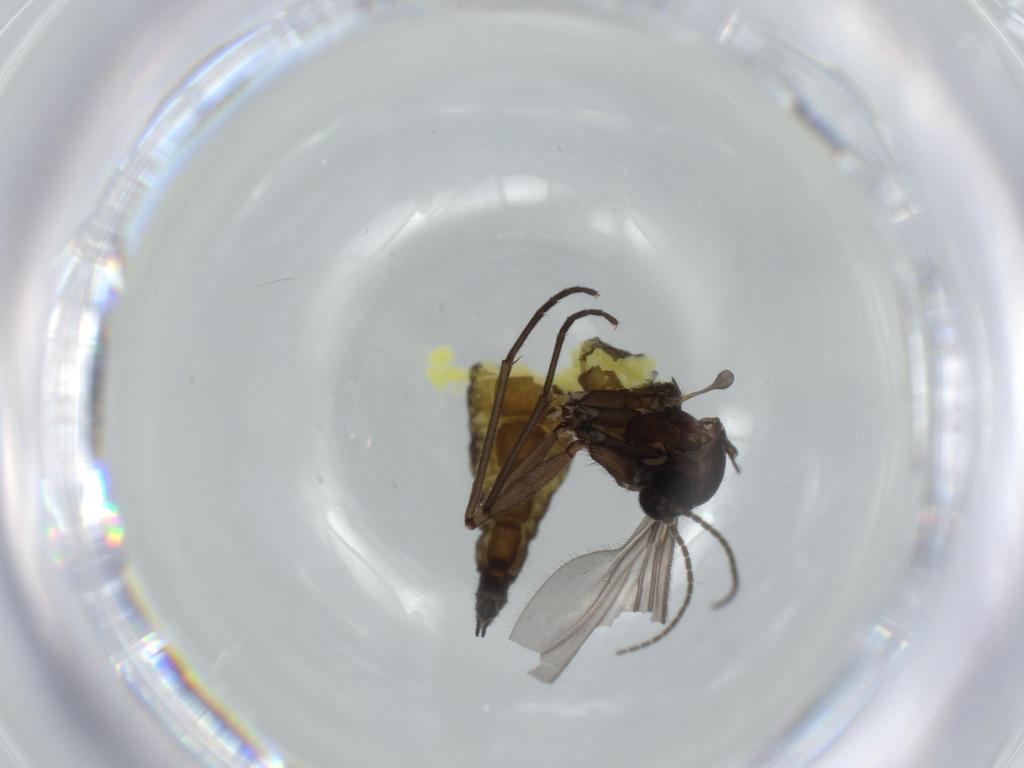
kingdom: Animalia
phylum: Arthropoda
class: Insecta
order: Diptera
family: Sciaridae
